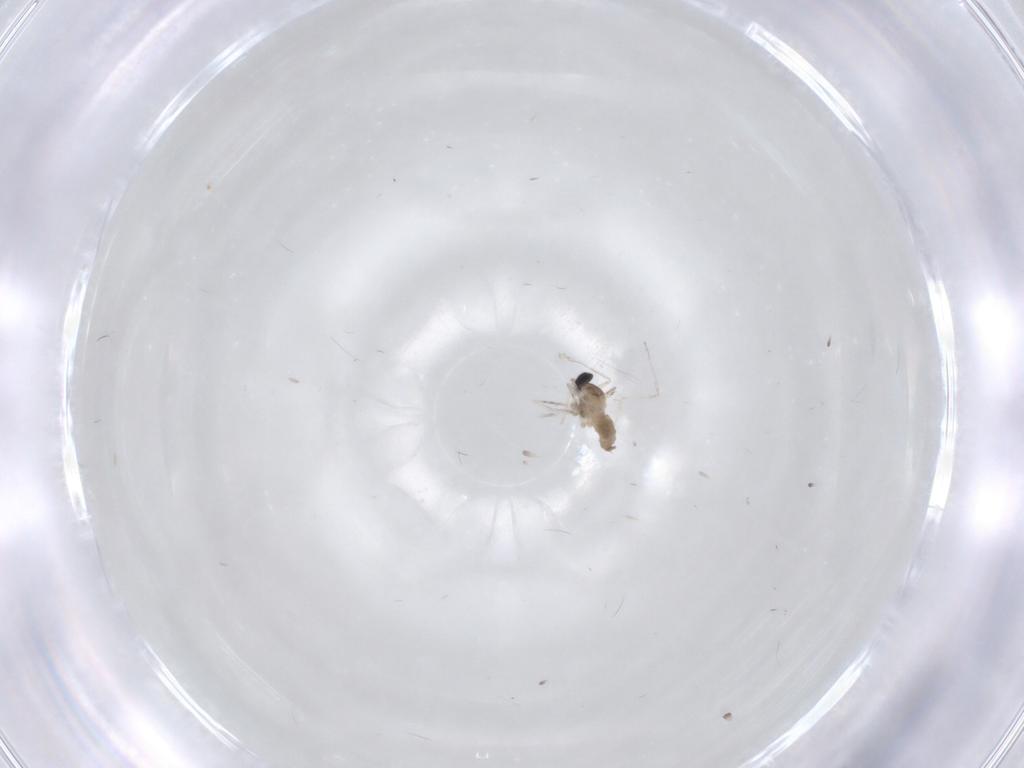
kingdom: Animalia
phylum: Arthropoda
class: Insecta
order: Diptera
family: Cecidomyiidae
